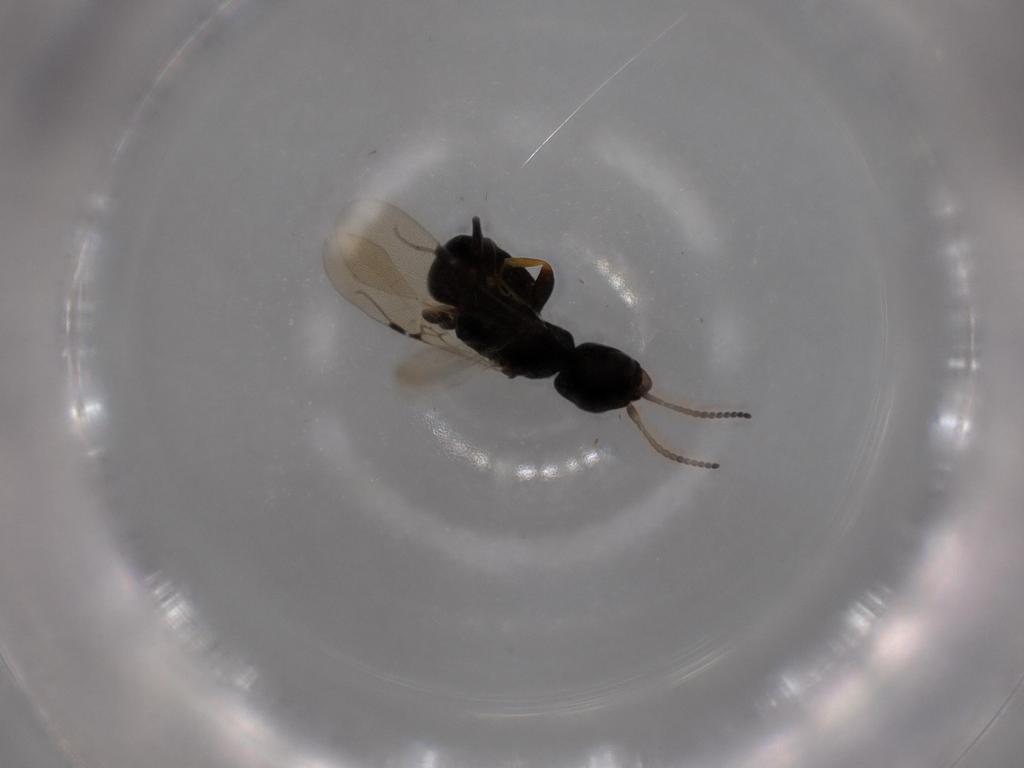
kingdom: Animalia
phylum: Arthropoda
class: Insecta
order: Hymenoptera
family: Bethylidae
